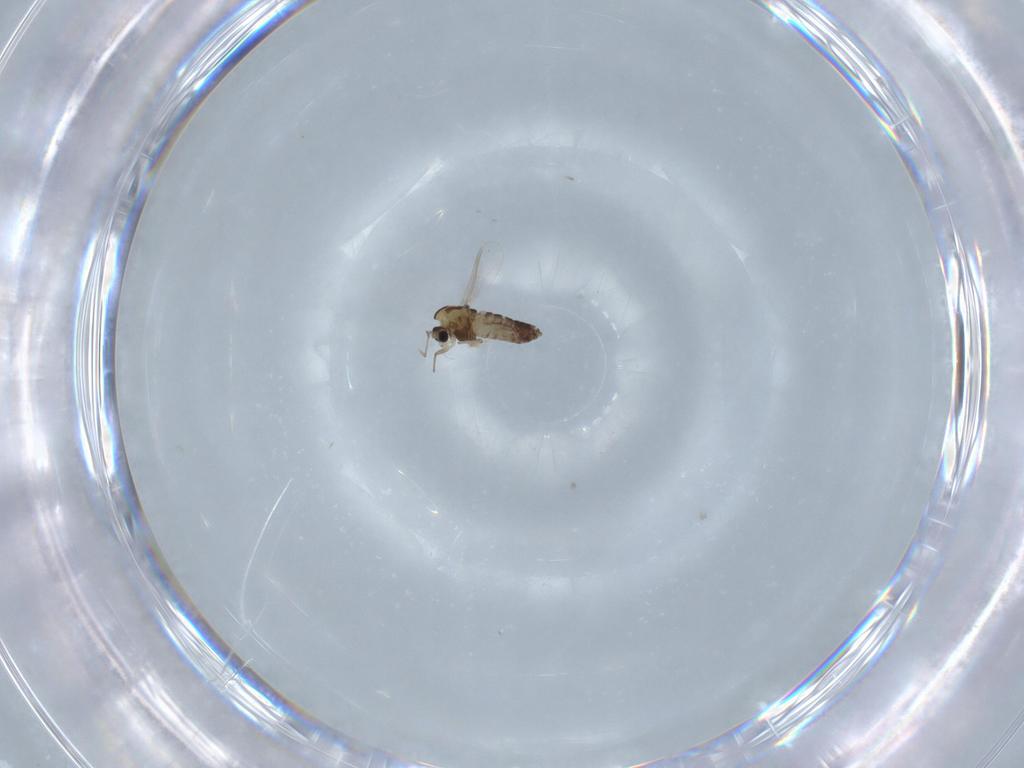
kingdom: Animalia
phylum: Arthropoda
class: Insecta
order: Diptera
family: Chironomidae
